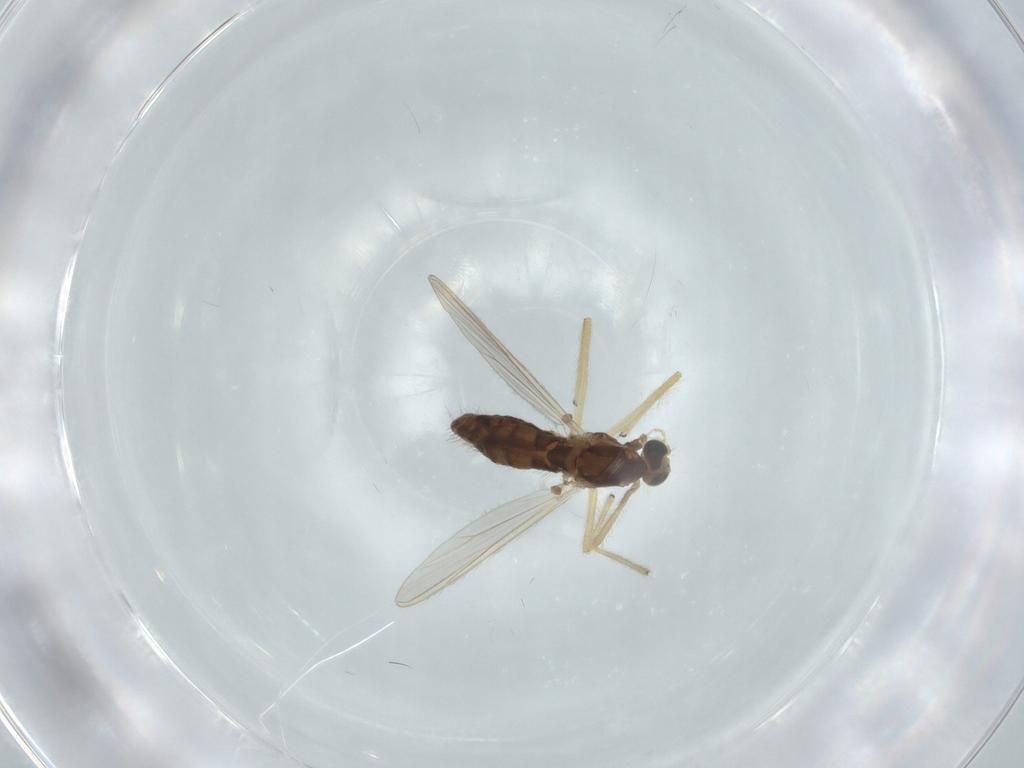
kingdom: Animalia
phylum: Arthropoda
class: Insecta
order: Diptera
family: Chironomidae
